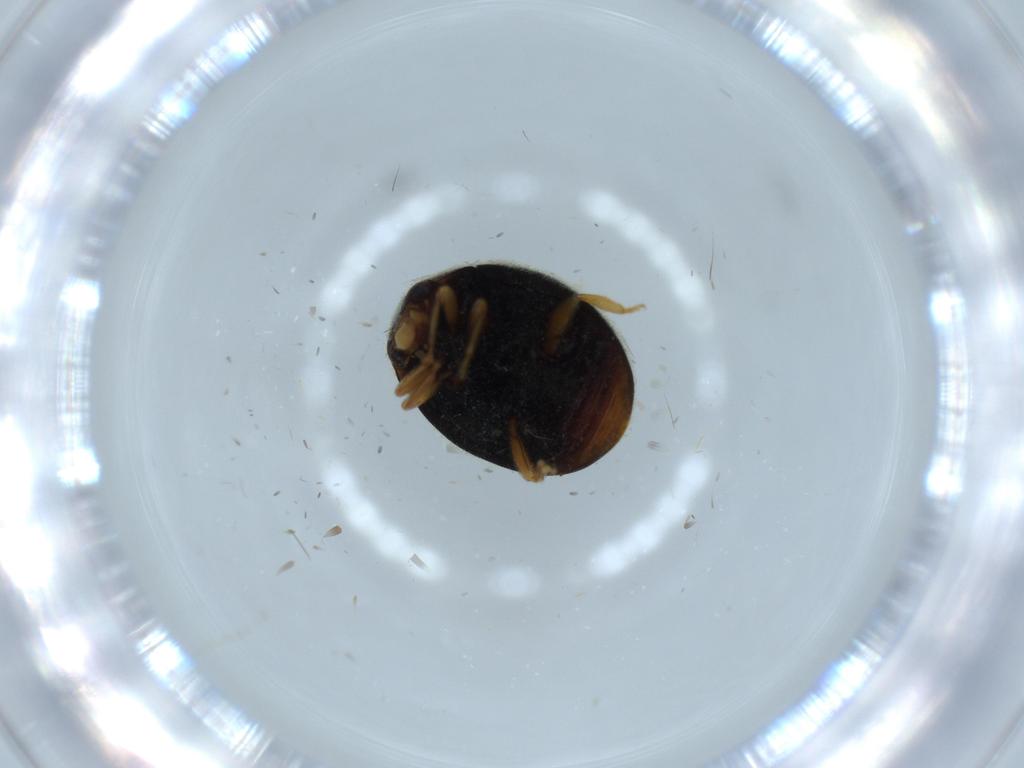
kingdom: Animalia
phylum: Arthropoda
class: Insecta
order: Coleoptera
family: Coccinellidae
